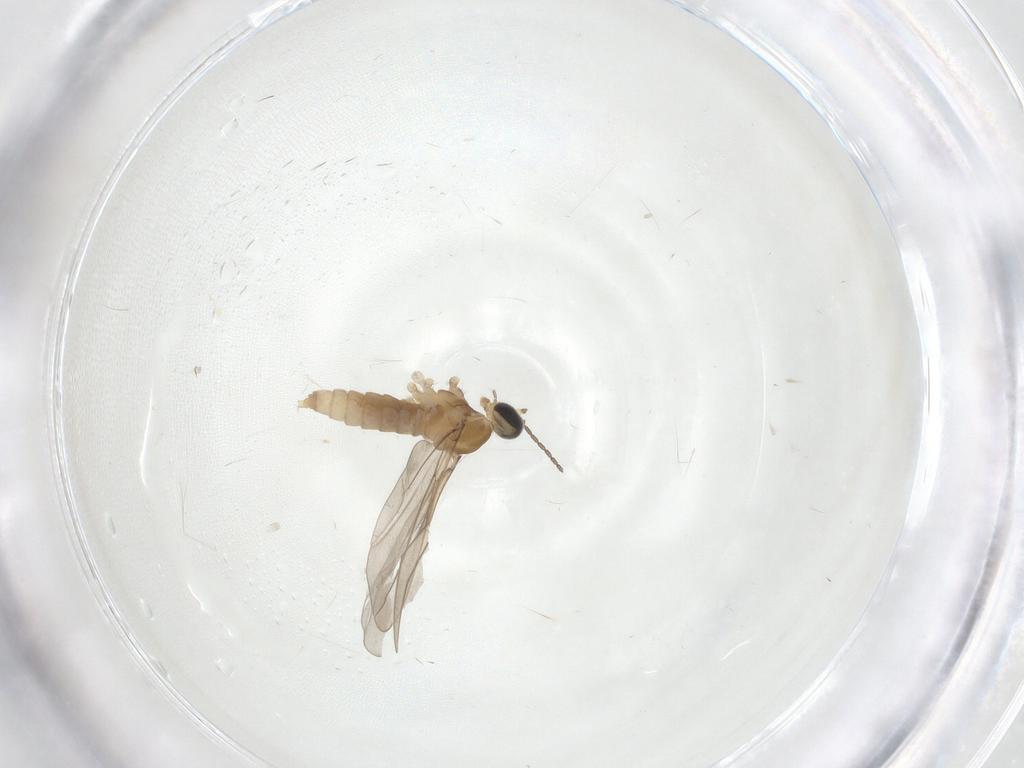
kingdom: Animalia
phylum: Arthropoda
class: Insecta
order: Diptera
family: Cecidomyiidae
